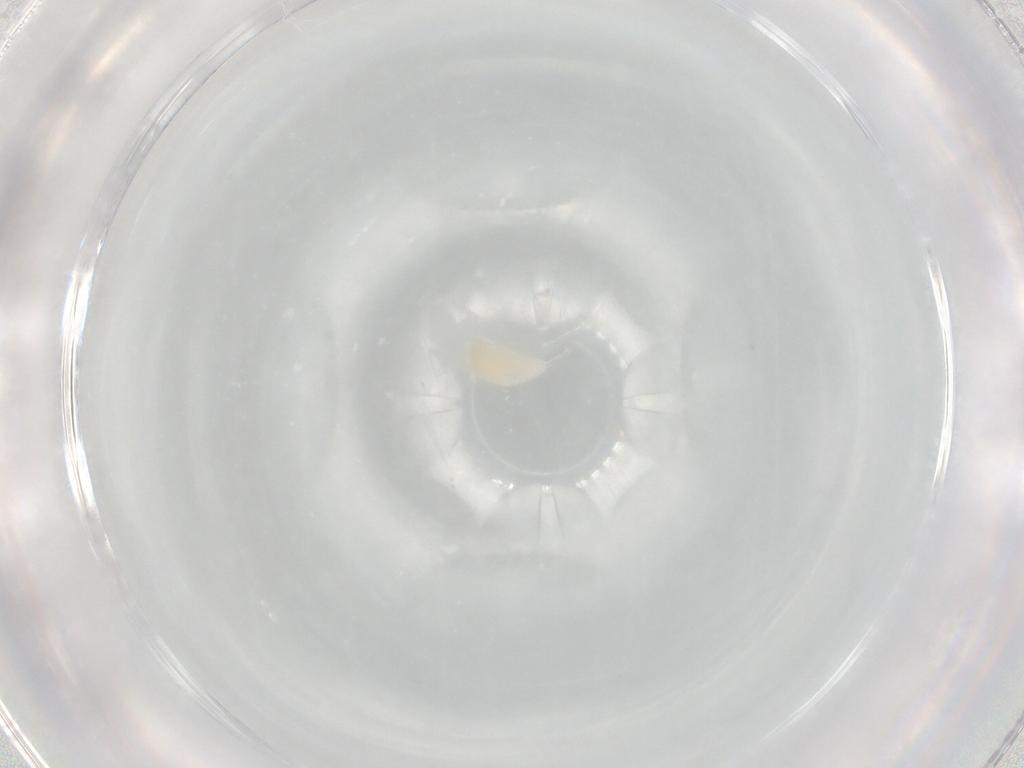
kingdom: Animalia
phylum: Arthropoda
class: Insecta
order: Hymenoptera
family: Ichneumonidae
